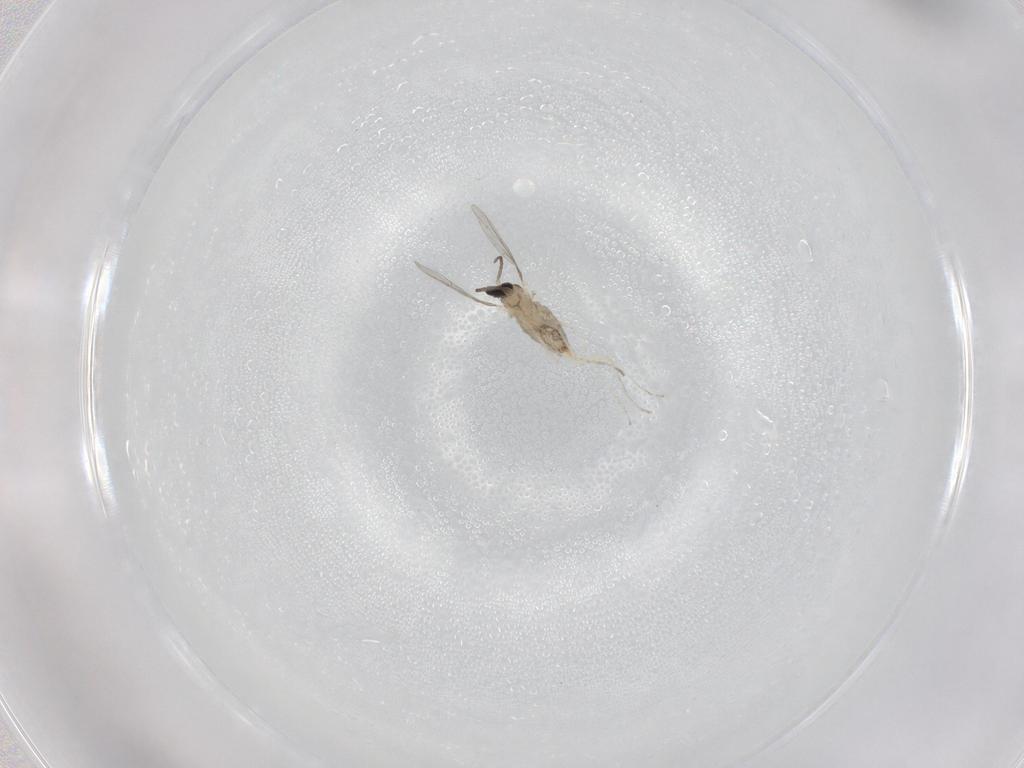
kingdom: Animalia
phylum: Arthropoda
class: Insecta
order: Diptera
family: Cecidomyiidae
